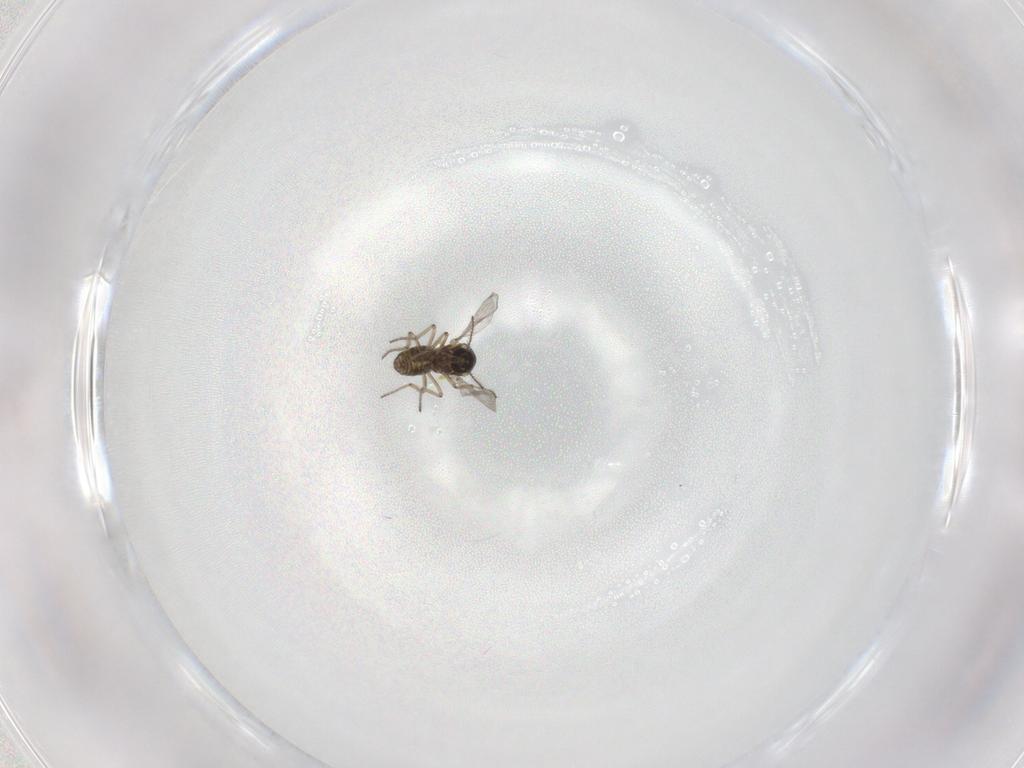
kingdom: Animalia
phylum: Arthropoda
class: Insecta
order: Diptera
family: Ceratopogonidae
